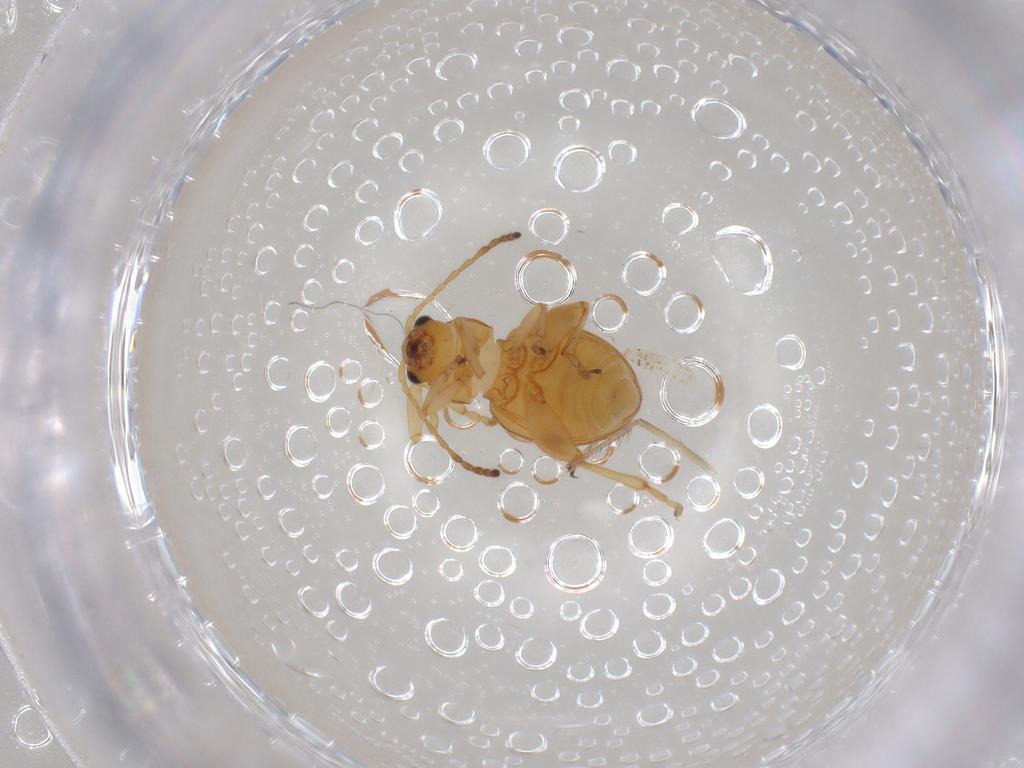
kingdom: Animalia
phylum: Arthropoda
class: Insecta
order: Coleoptera
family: Chrysomelidae
